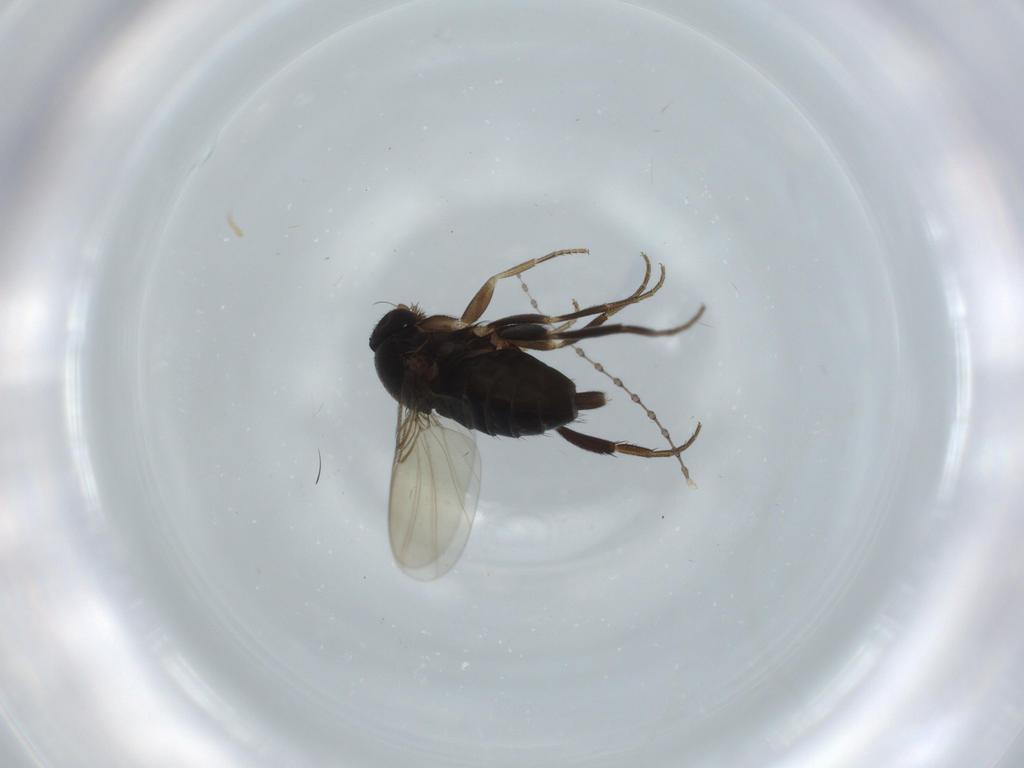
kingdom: Animalia
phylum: Arthropoda
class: Insecta
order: Diptera
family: Phoridae
